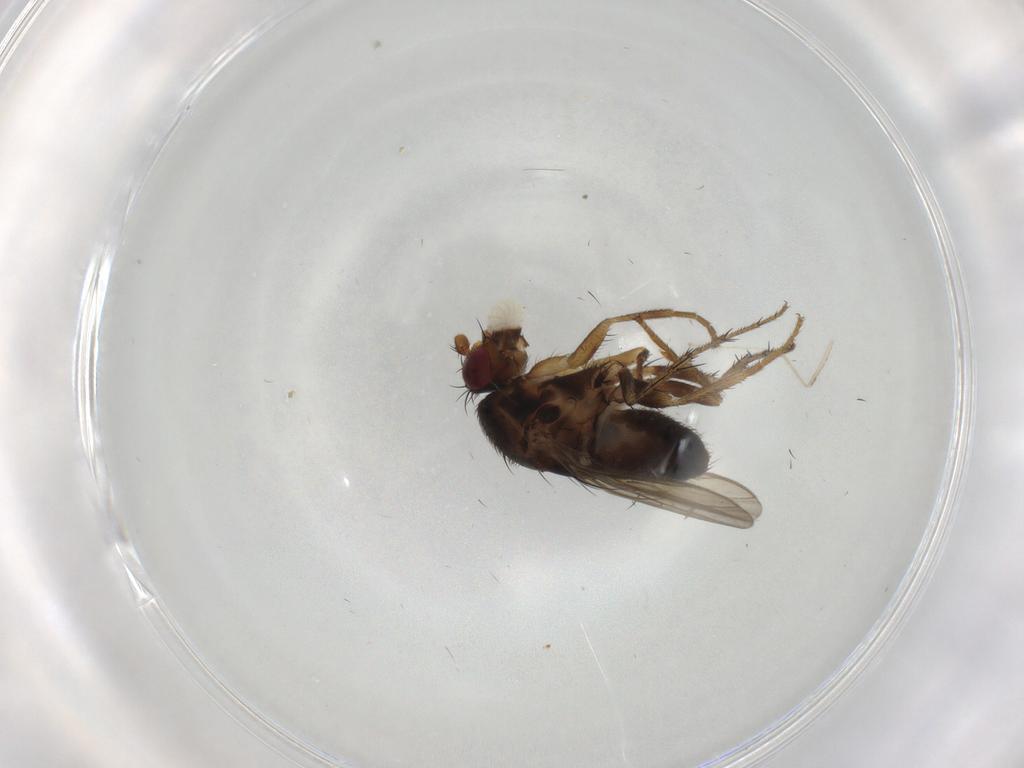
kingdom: Animalia
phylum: Arthropoda
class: Insecta
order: Diptera
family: Sphaeroceridae
